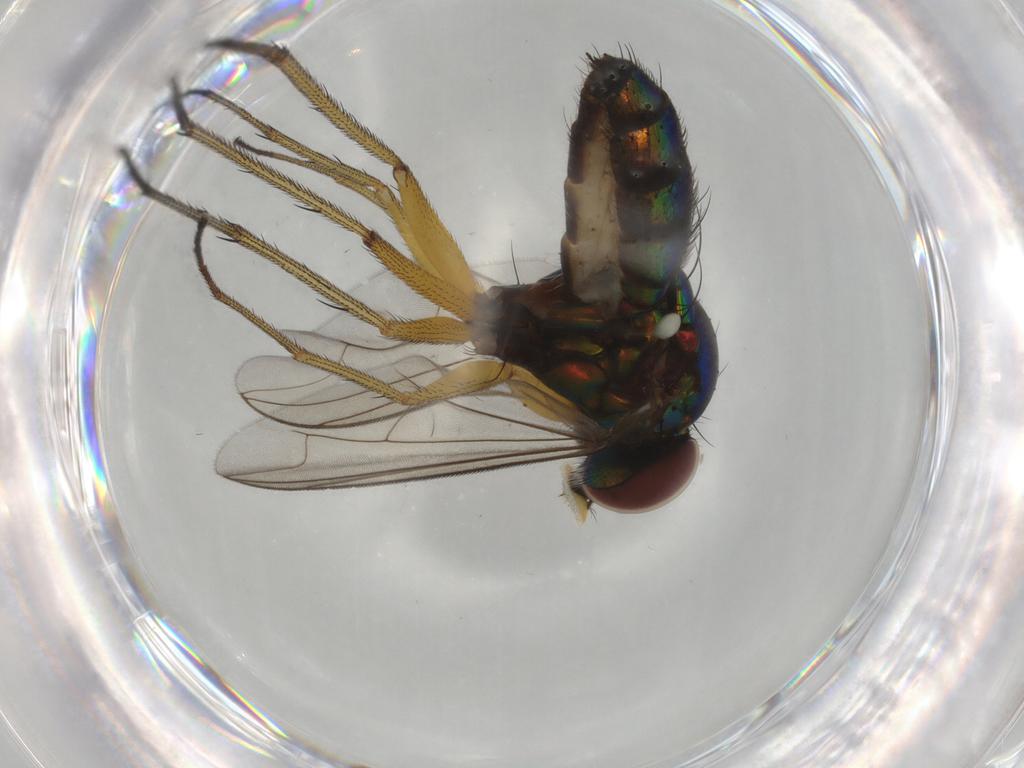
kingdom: Animalia
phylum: Arthropoda
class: Insecta
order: Diptera
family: Dolichopodidae
